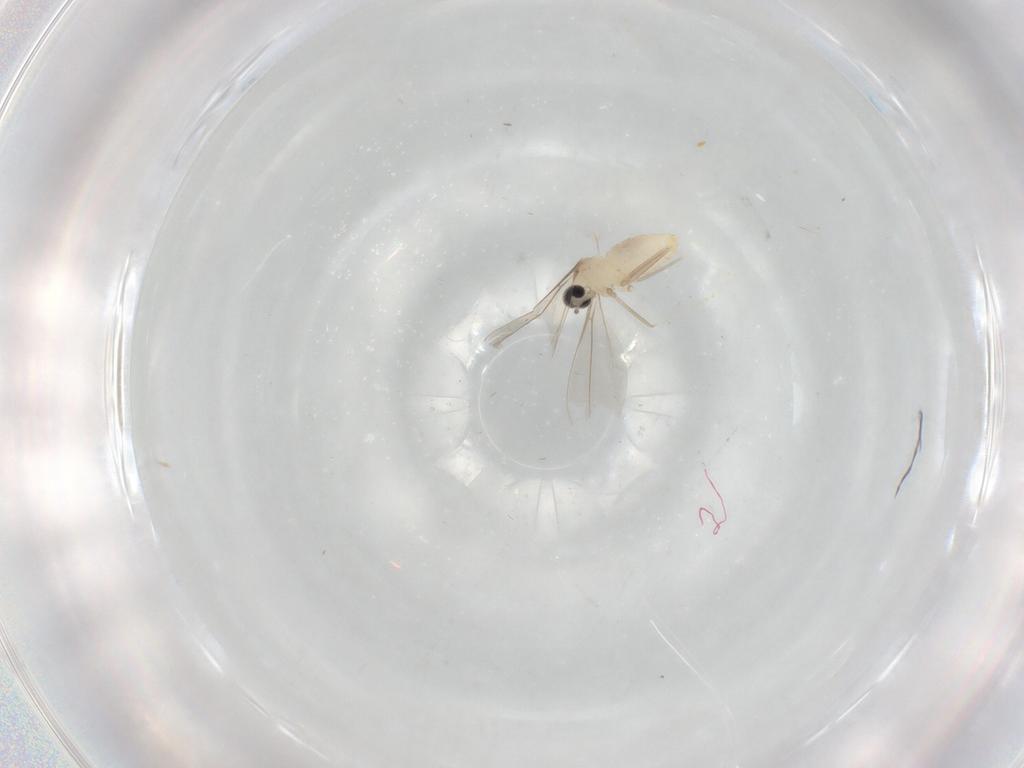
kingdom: Animalia
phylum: Arthropoda
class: Insecta
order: Diptera
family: Cecidomyiidae
